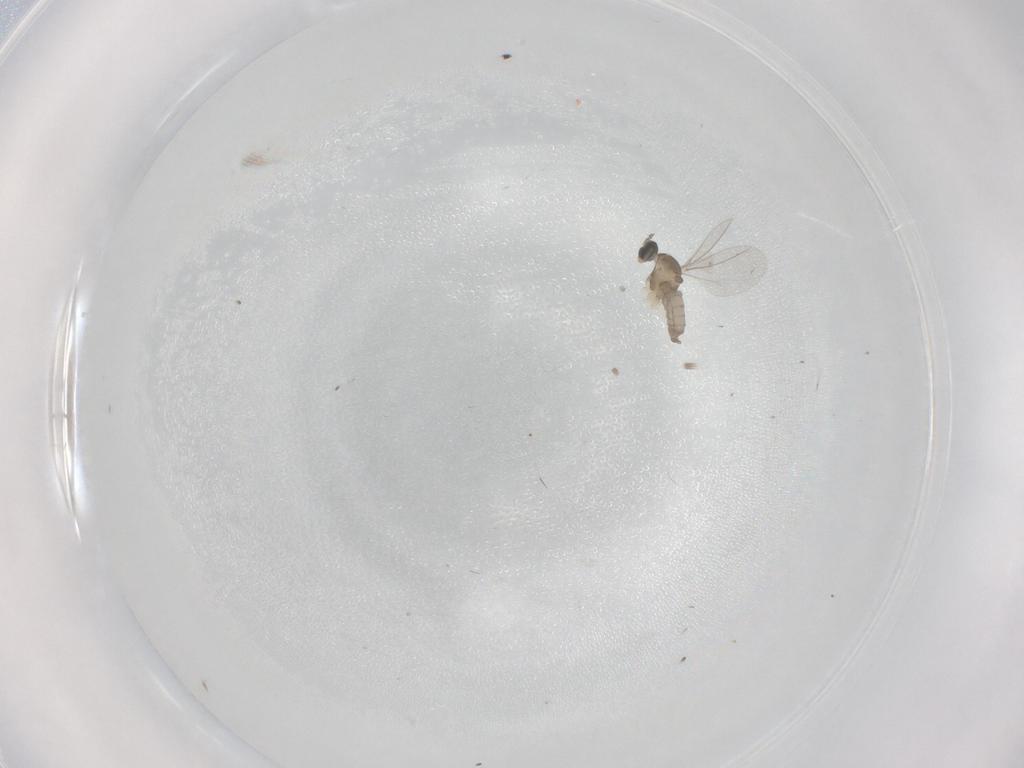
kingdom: Animalia
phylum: Arthropoda
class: Insecta
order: Diptera
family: Cecidomyiidae
